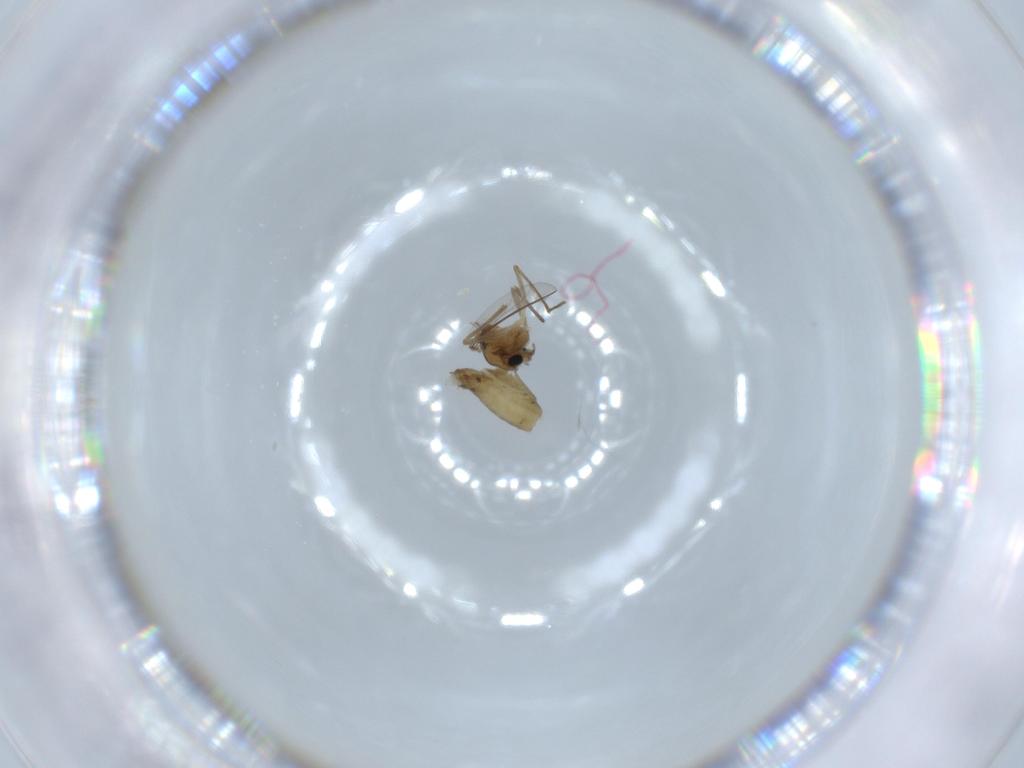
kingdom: Animalia
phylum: Arthropoda
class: Insecta
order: Diptera
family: Chironomidae
